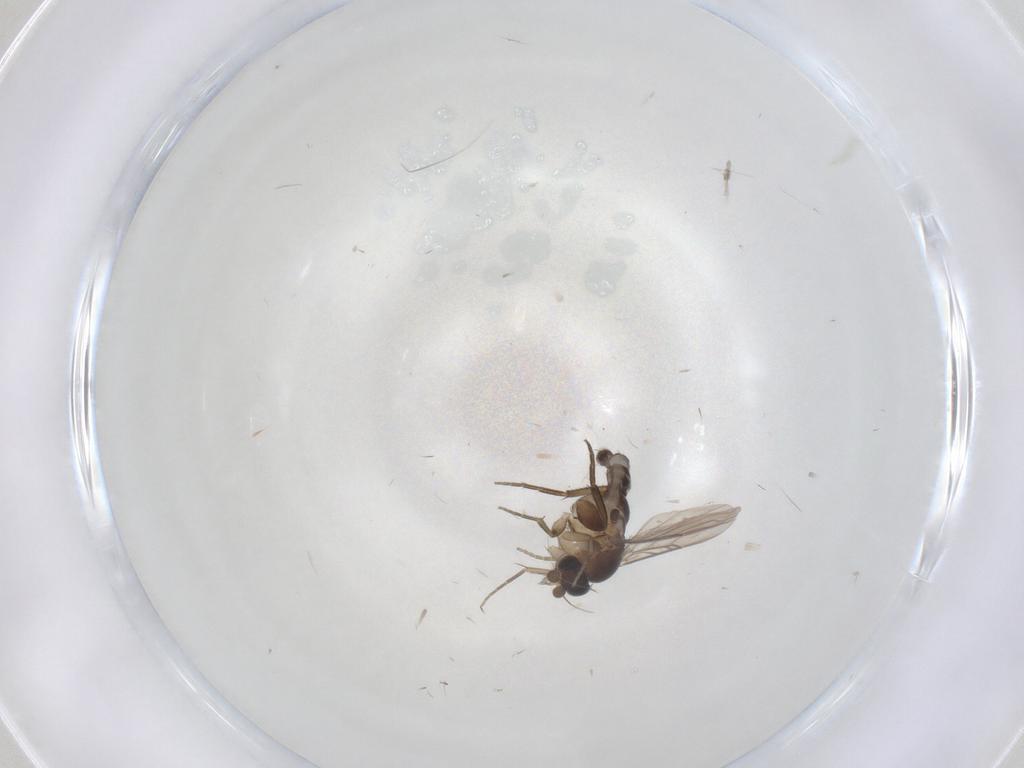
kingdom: Animalia
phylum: Arthropoda
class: Insecta
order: Diptera
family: Phoridae
